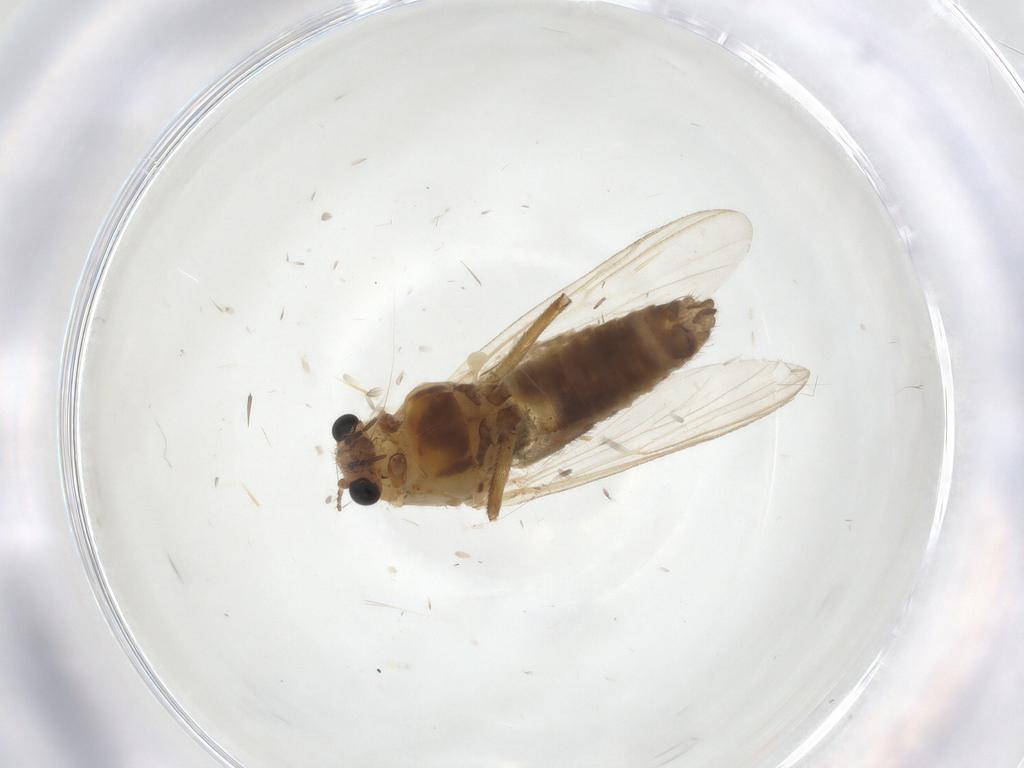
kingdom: Animalia
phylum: Arthropoda
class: Insecta
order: Diptera
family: Chironomidae
